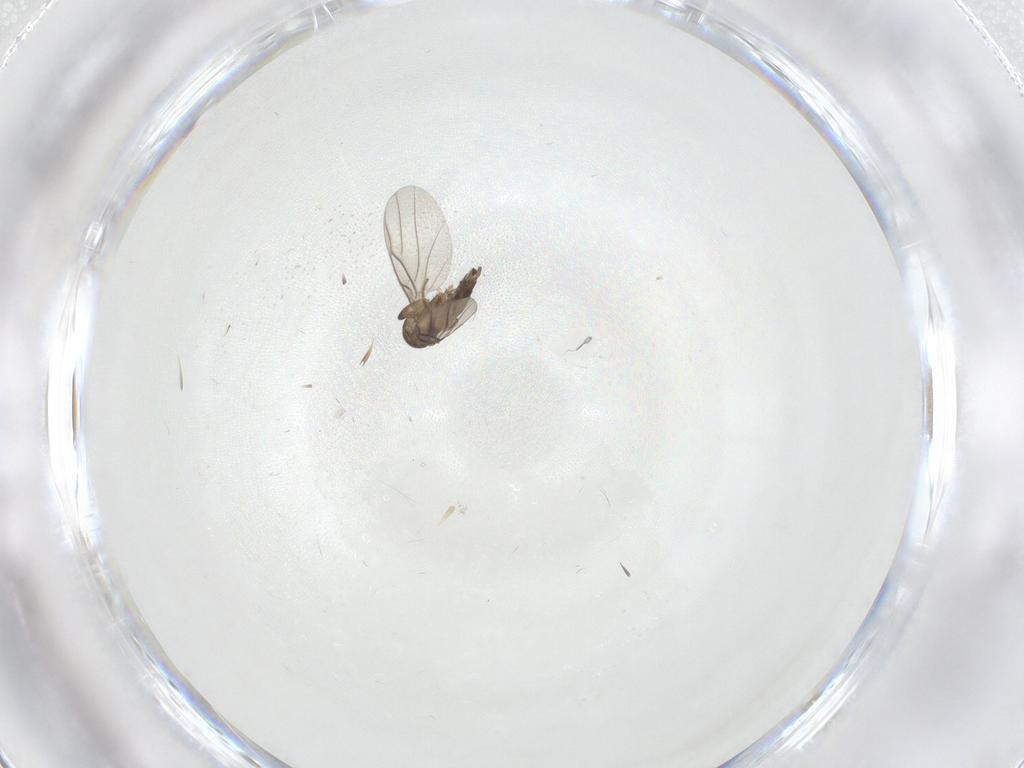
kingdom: Animalia
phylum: Arthropoda
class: Insecta
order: Diptera
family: Phoridae
